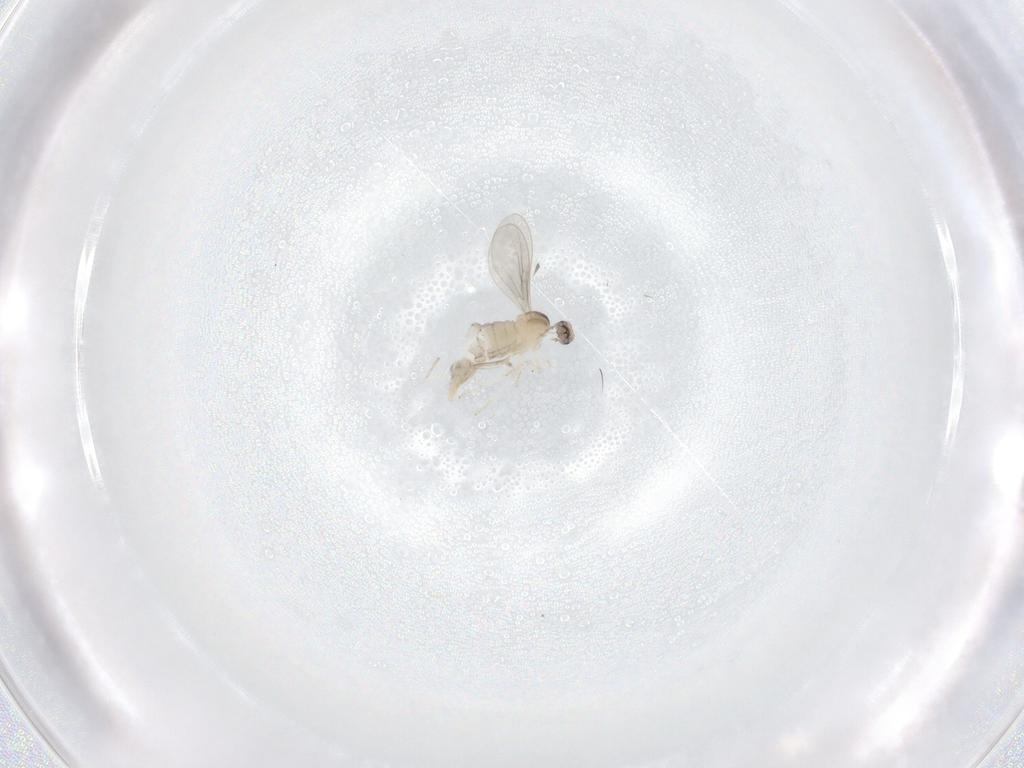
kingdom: Animalia
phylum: Arthropoda
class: Insecta
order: Diptera
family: Cecidomyiidae
